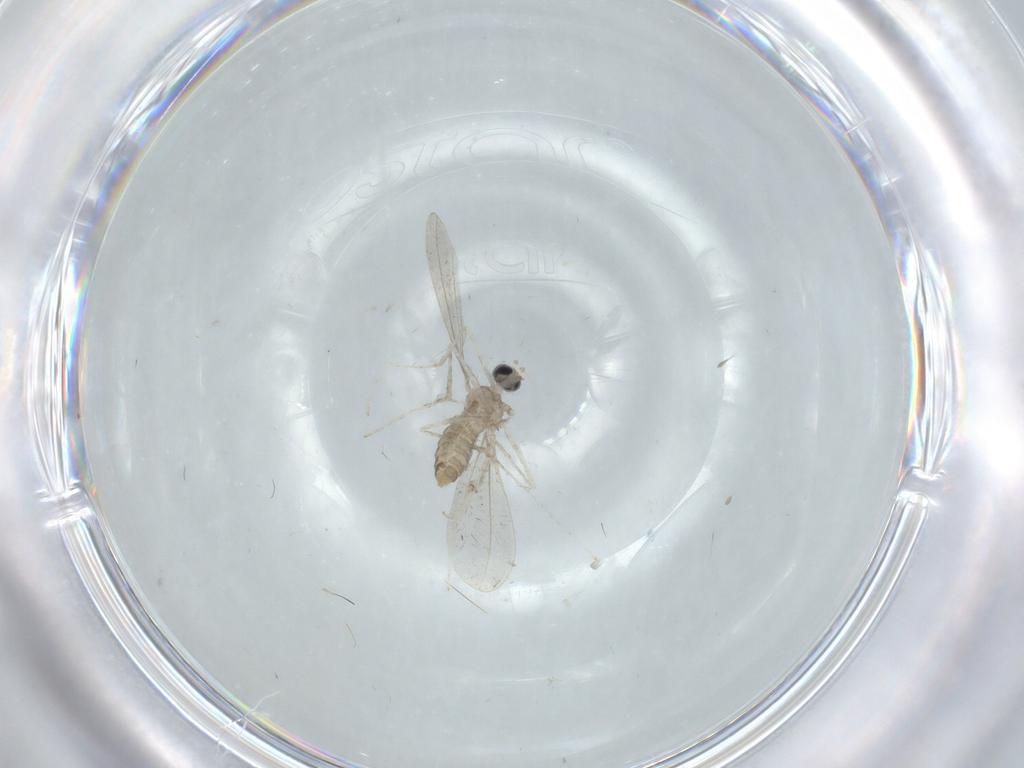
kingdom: Animalia
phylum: Arthropoda
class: Insecta
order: Diptera
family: Cecidomyiidae
